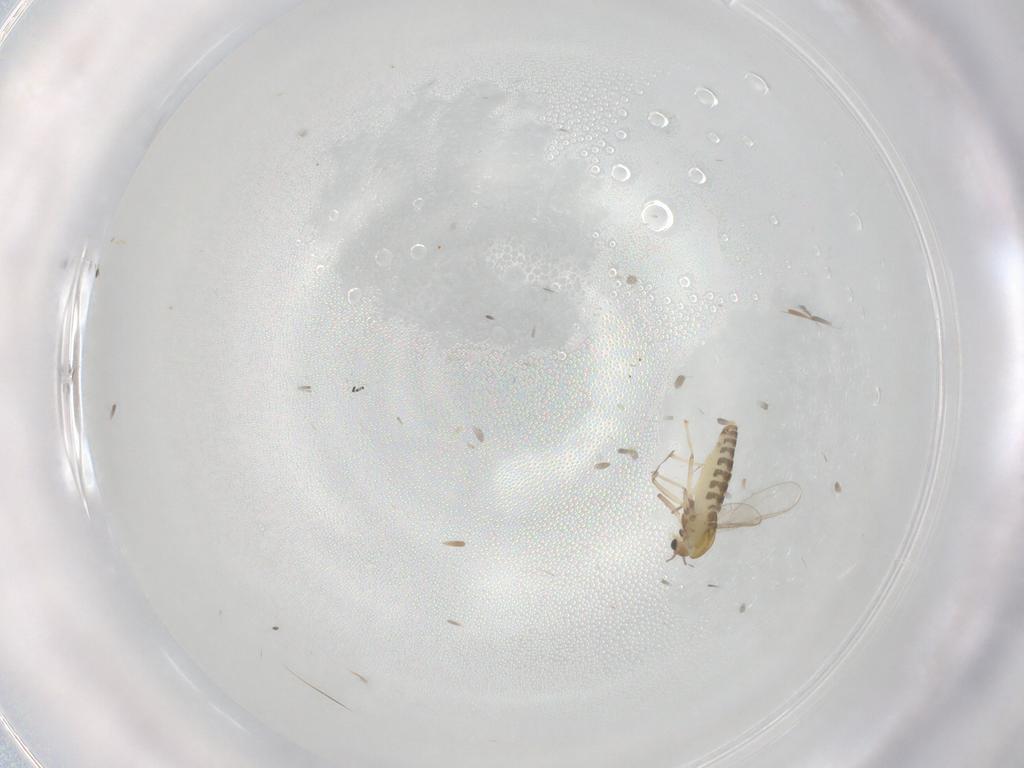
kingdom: Animalia
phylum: Arthropoda
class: Insecta
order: Diptera
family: Chironomidae
